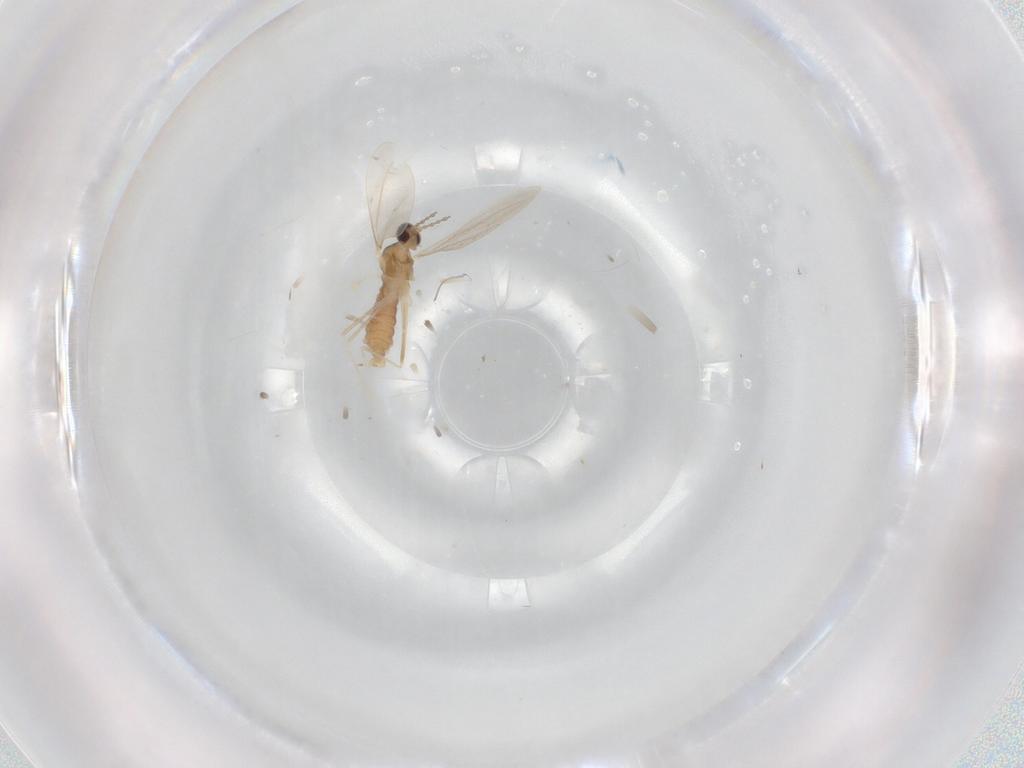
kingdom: Animalia
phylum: Arthropoda
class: Insecta
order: Diptera
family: Cecidomyiidae
